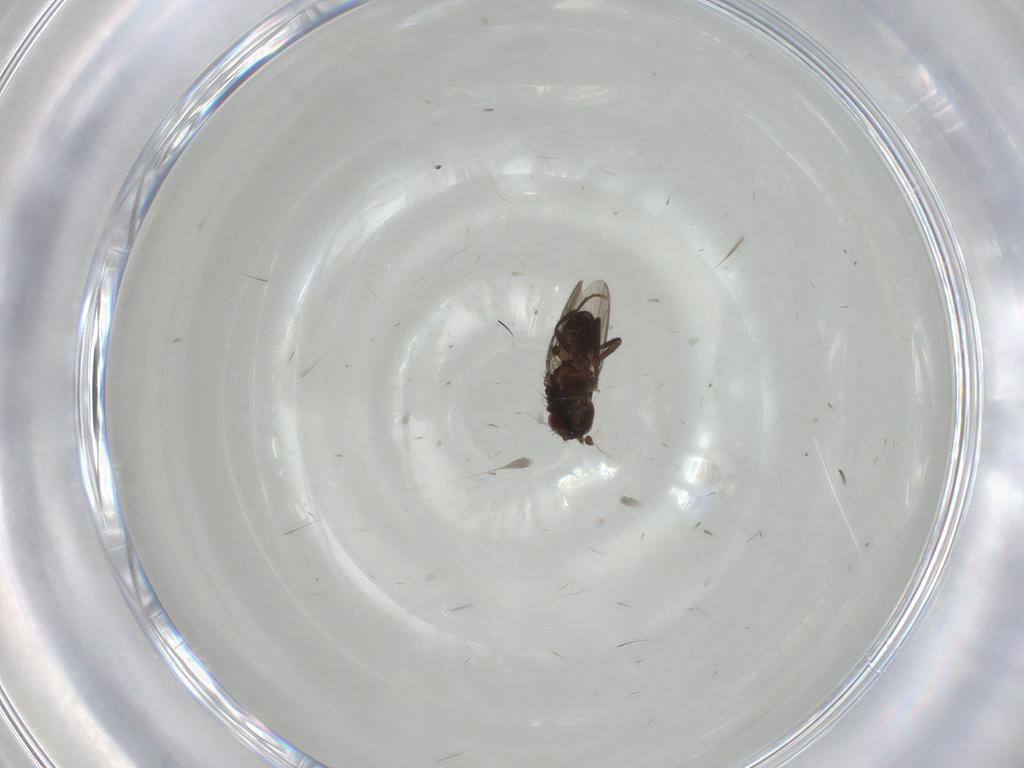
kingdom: Animalia
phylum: Arthropoda
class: Insecta
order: Diptera
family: Sphaeroceridae
